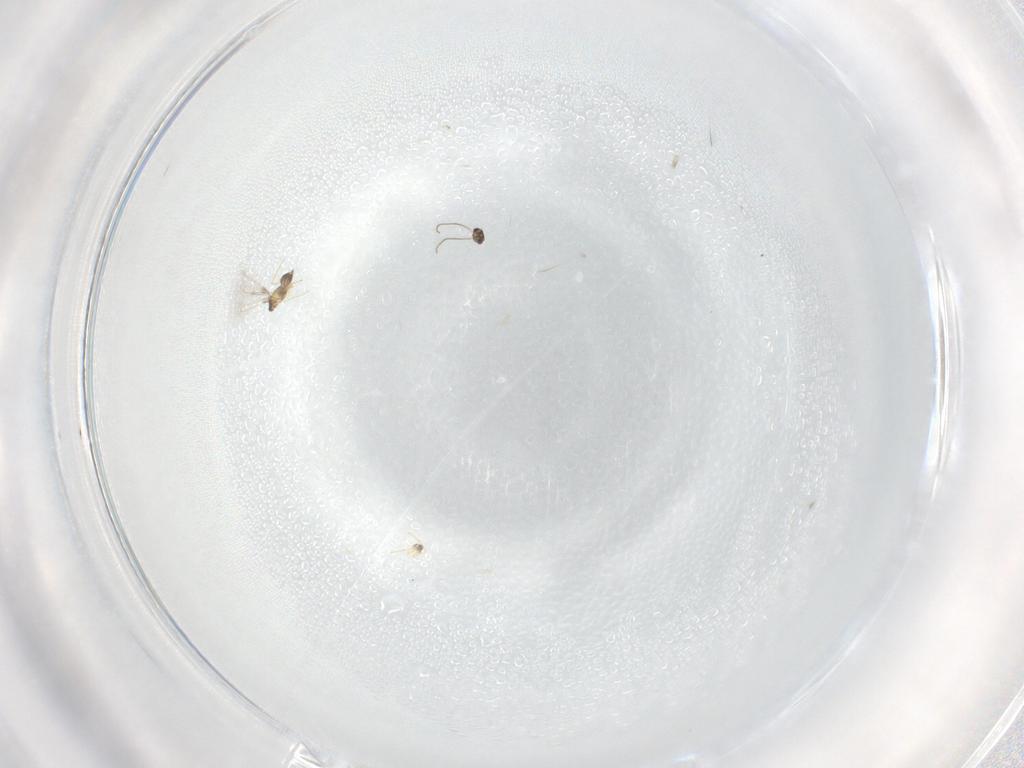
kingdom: Animalia
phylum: Arthropoda
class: Insecta
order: Hymenoptera
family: Mymaridae
